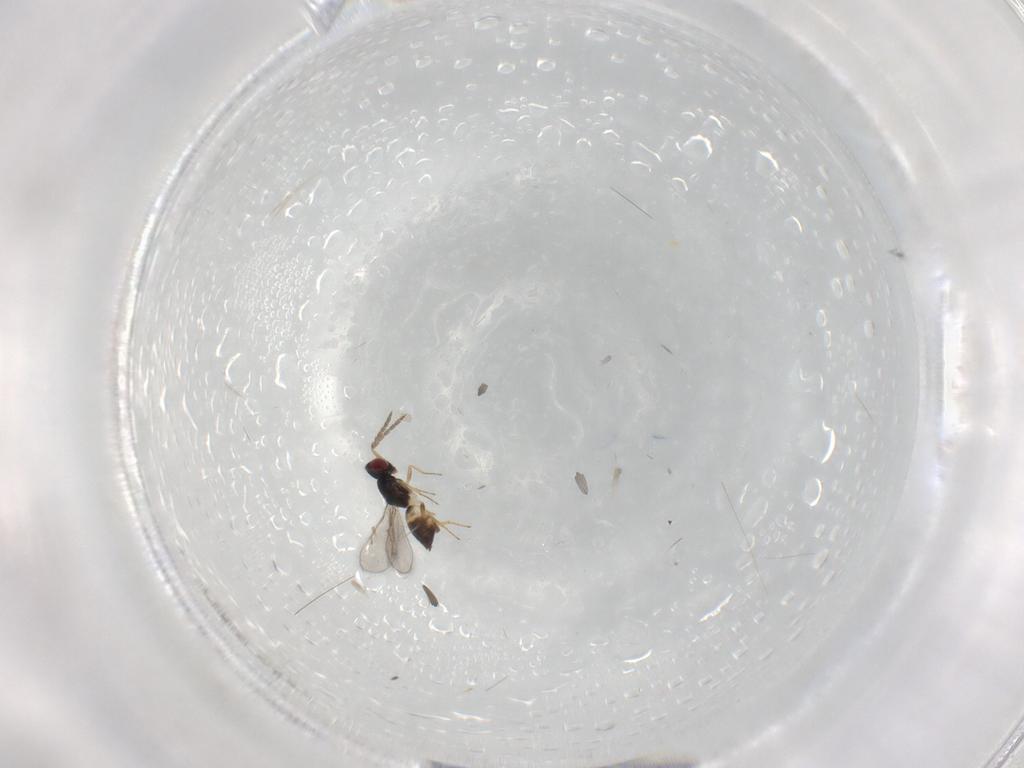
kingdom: Animalia
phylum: Arthropoda
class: Insecta
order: Hymenoptera
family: Eulophidae
